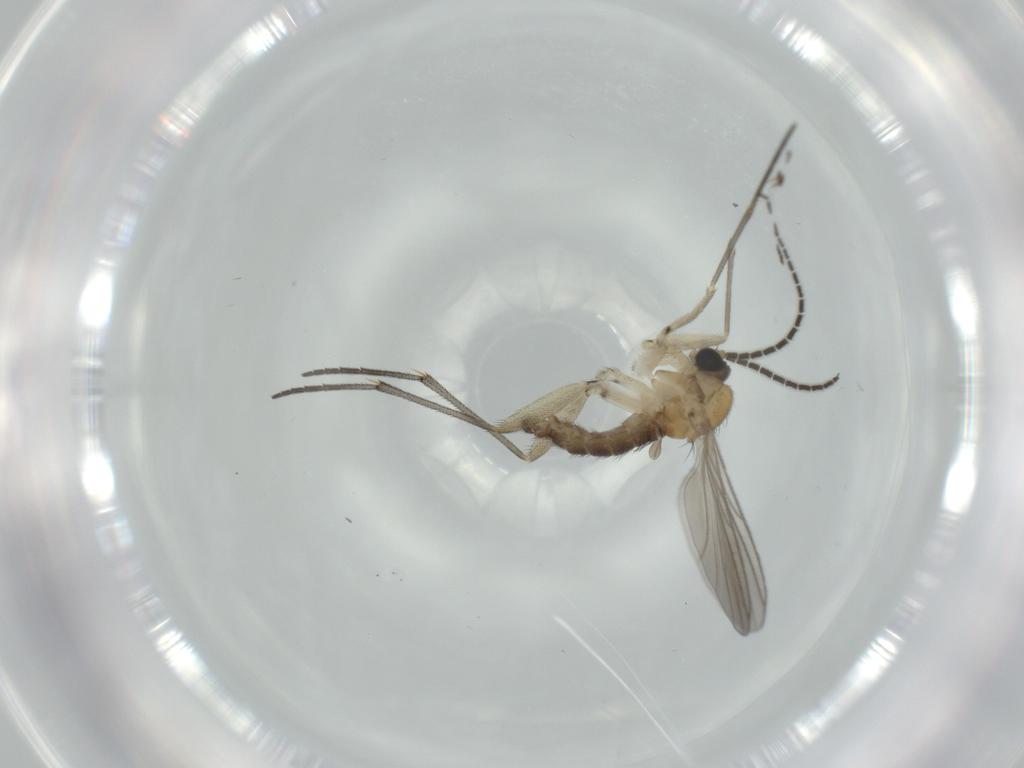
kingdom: Animalia
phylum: Arthropoda
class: Insecta
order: Diptera
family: Sciaridae
